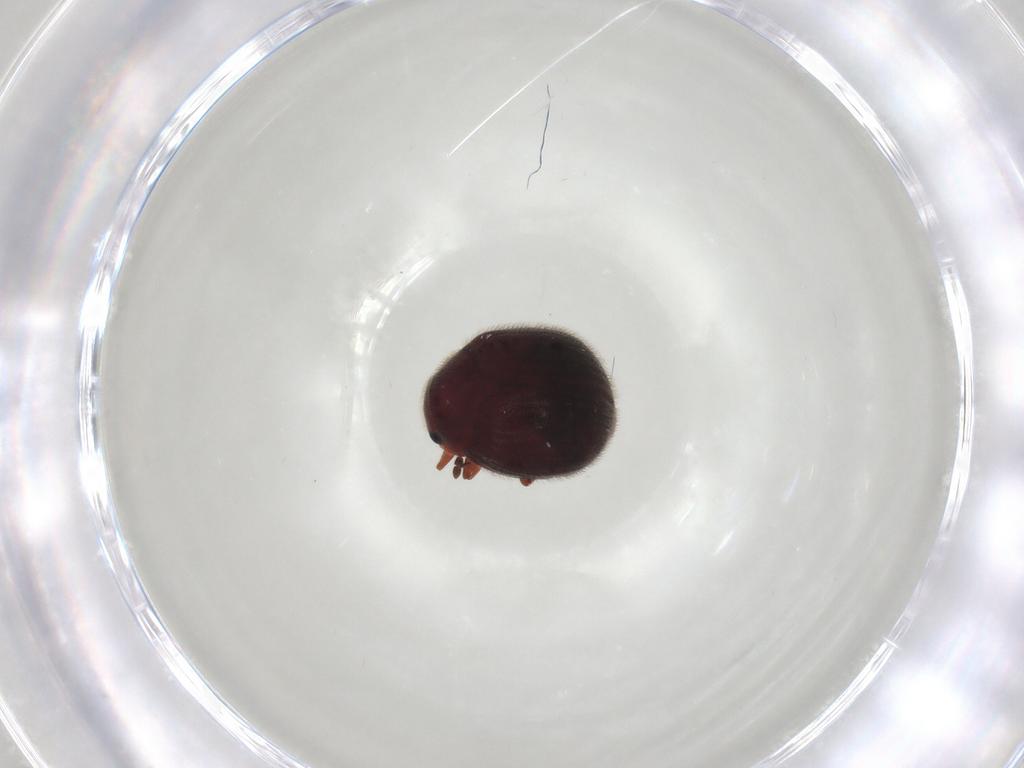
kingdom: Animalia
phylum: Arthropoda
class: Insecta
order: Coleoptera
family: Sphindidae
